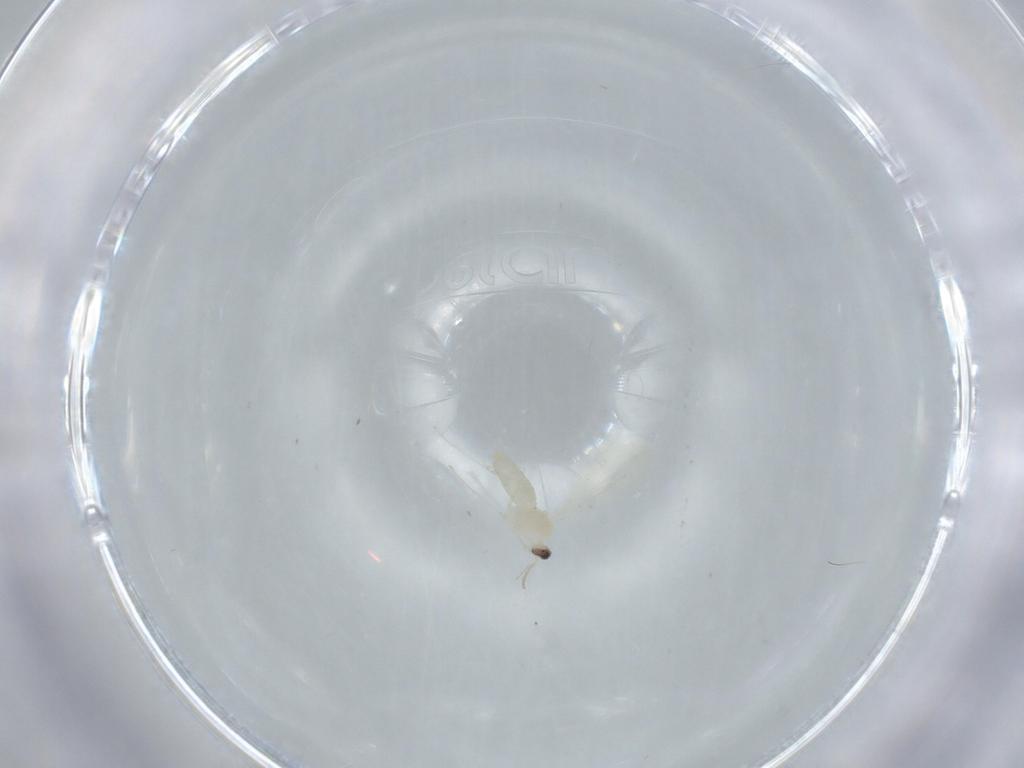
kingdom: Animalia
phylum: Arthropoda
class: Insecta
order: Diptera
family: Cecidomyiidae
